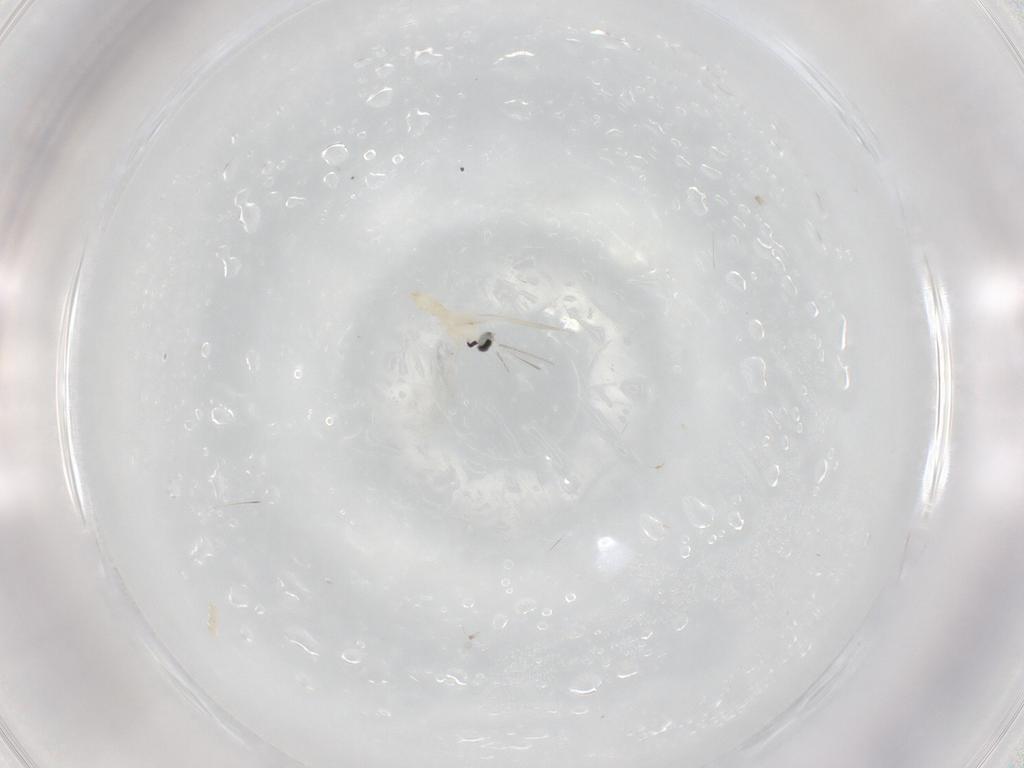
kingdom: Animalia
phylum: Arthropoda
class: Insecta
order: Diptera
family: Cecidomyiidae
